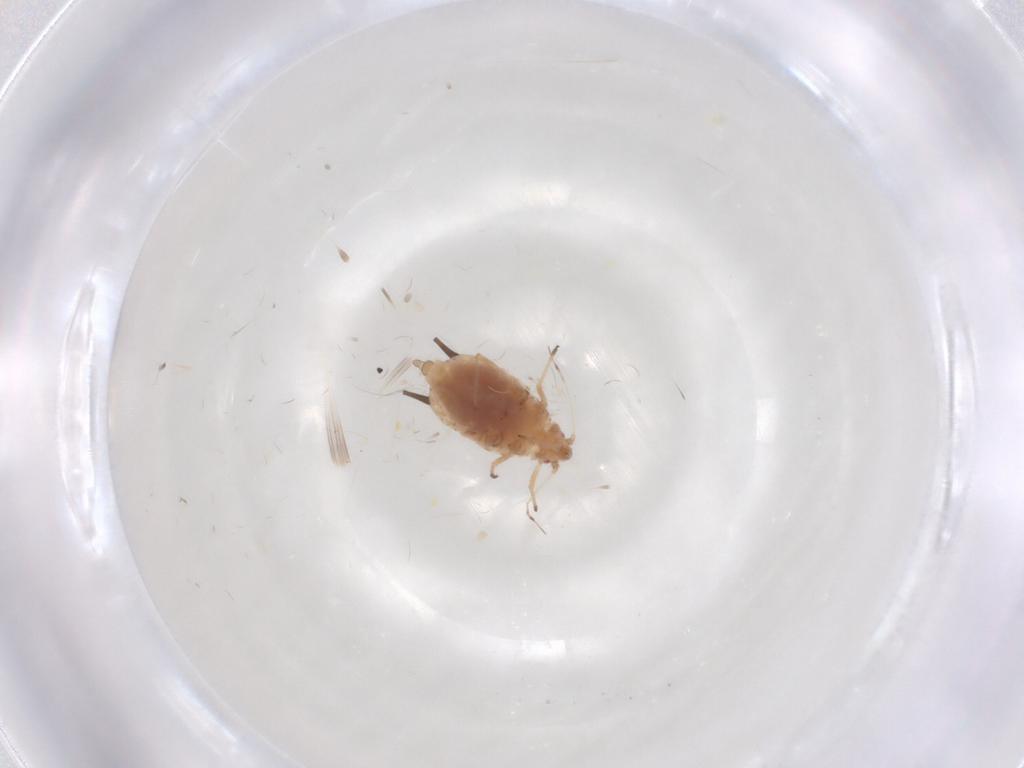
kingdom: Animalia
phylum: Arthropoda
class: Insecta
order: Hemiptera
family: Aphididae
